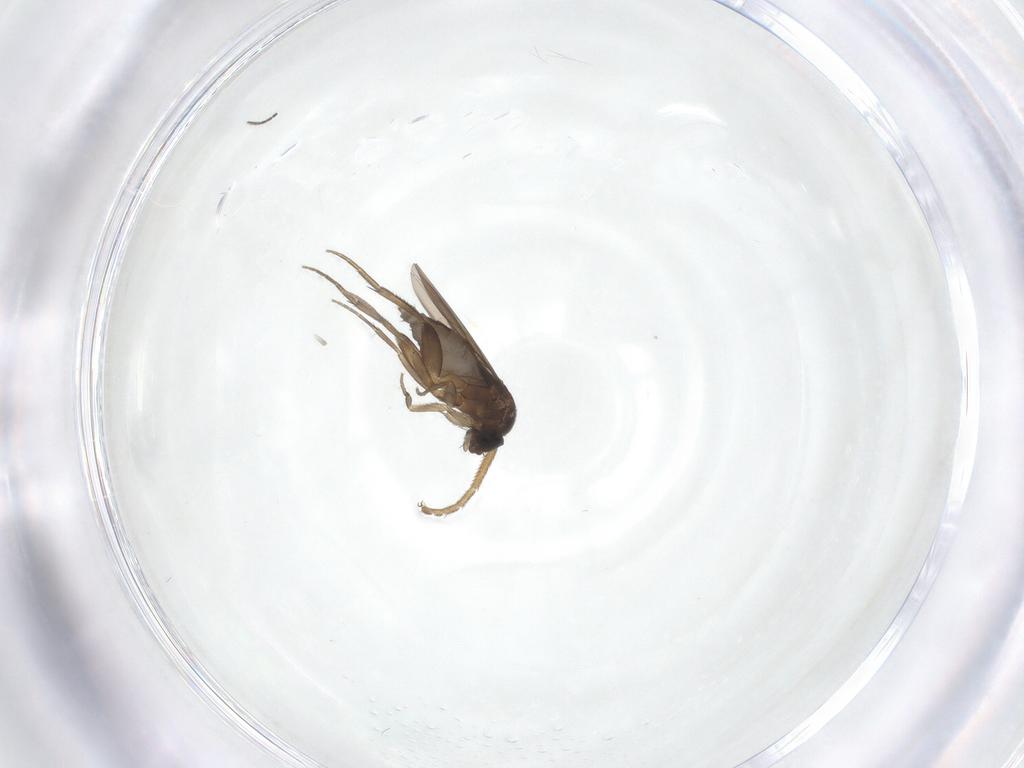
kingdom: Animalia
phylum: Arthropoda
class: Insecta
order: Diptera
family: Phoridae
